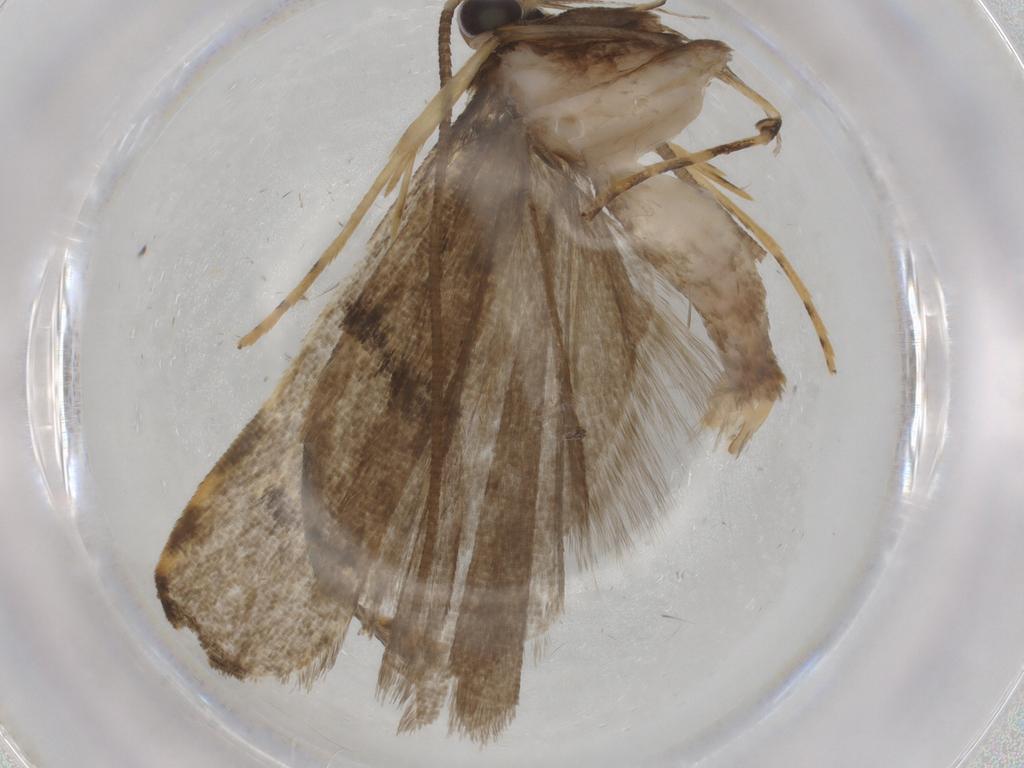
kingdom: Animalia
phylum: Arthropoda
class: Insecta
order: Lepidoptera
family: Cosmopterigidae
